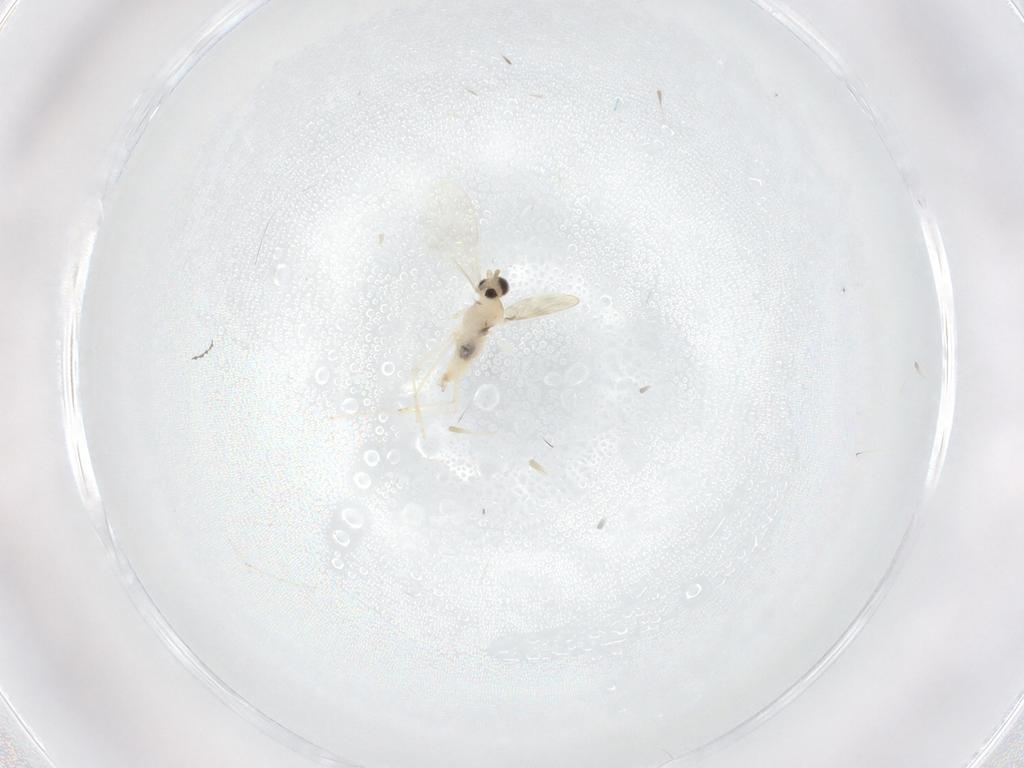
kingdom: Animalia
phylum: Arthropoda
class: Insecta
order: Diptera
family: Cecidomyiidae
